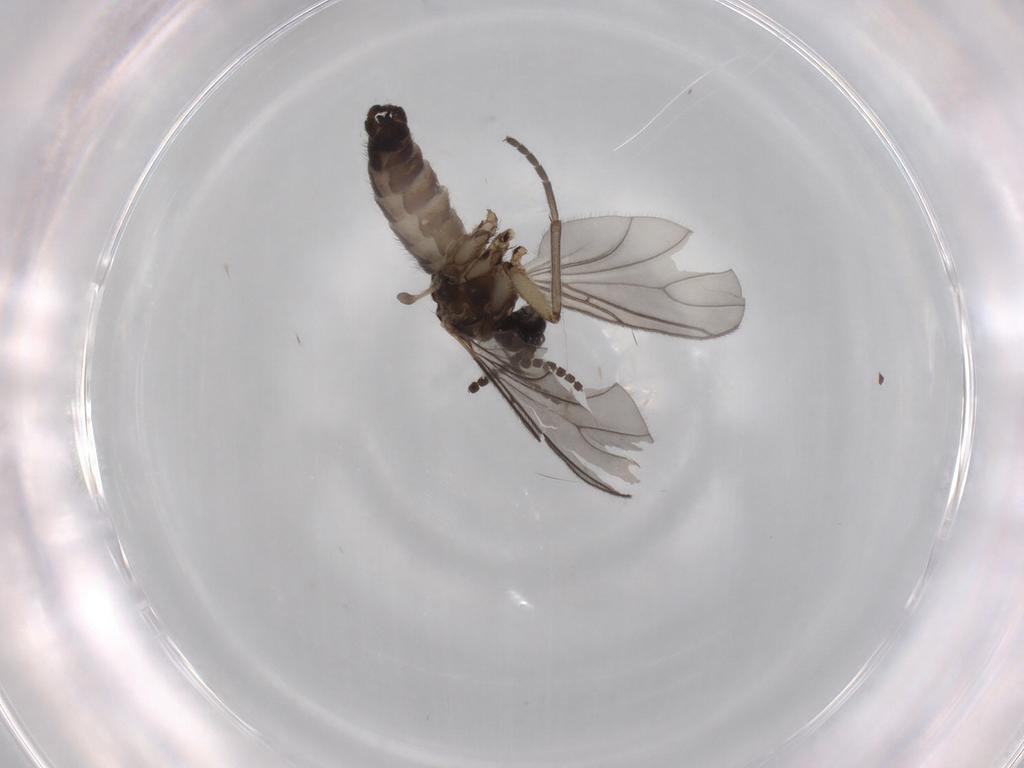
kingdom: Animalia
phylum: Arthropoda
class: Insecta
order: Diptera
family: Sciaridae
